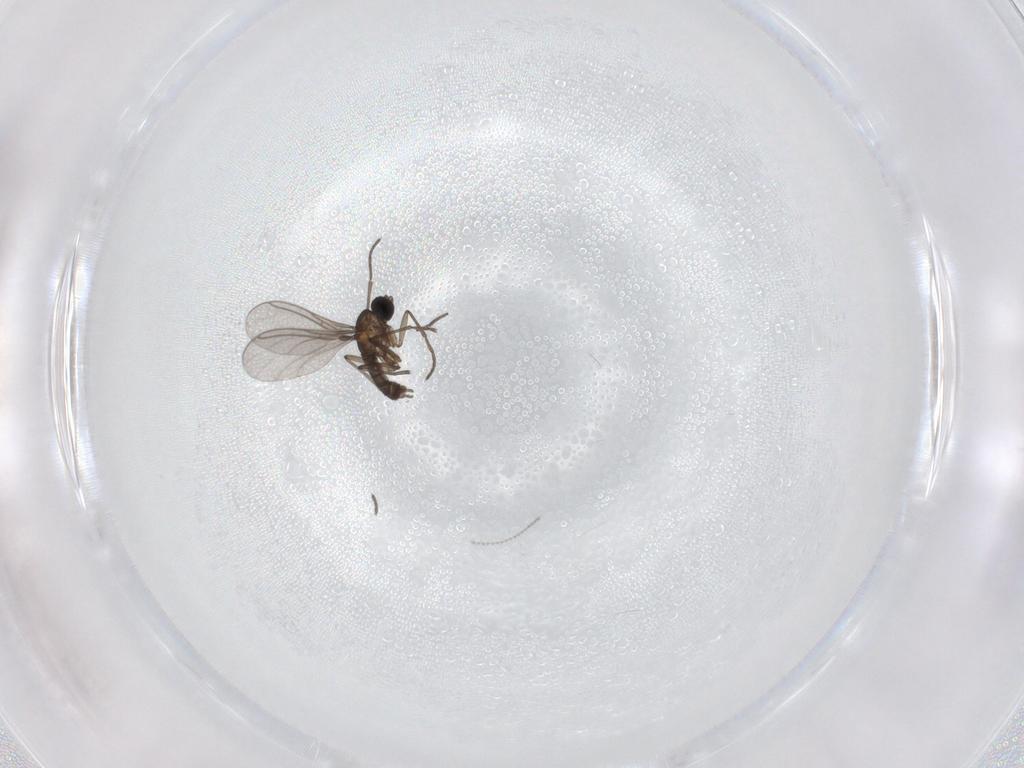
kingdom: Animalia
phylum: Arthropoda
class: Insecta
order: Diptera
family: Cecidomyiidae
